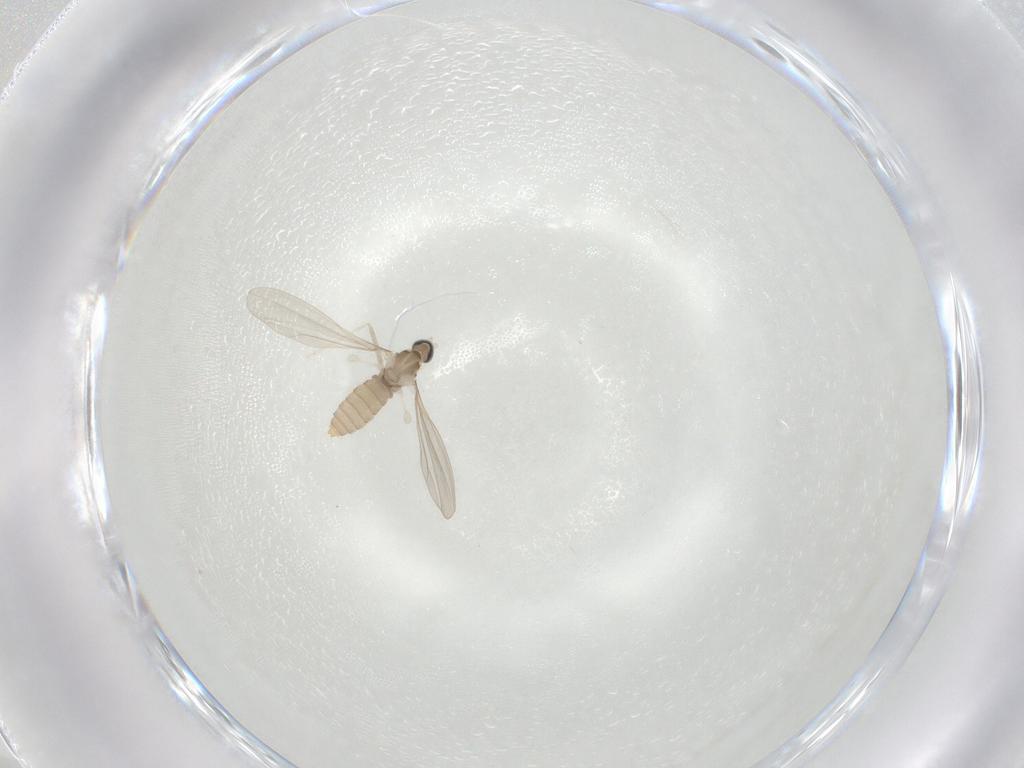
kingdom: Animalia
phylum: Arthropoda
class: Insecta
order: Diptera
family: Cecidomyiidae
